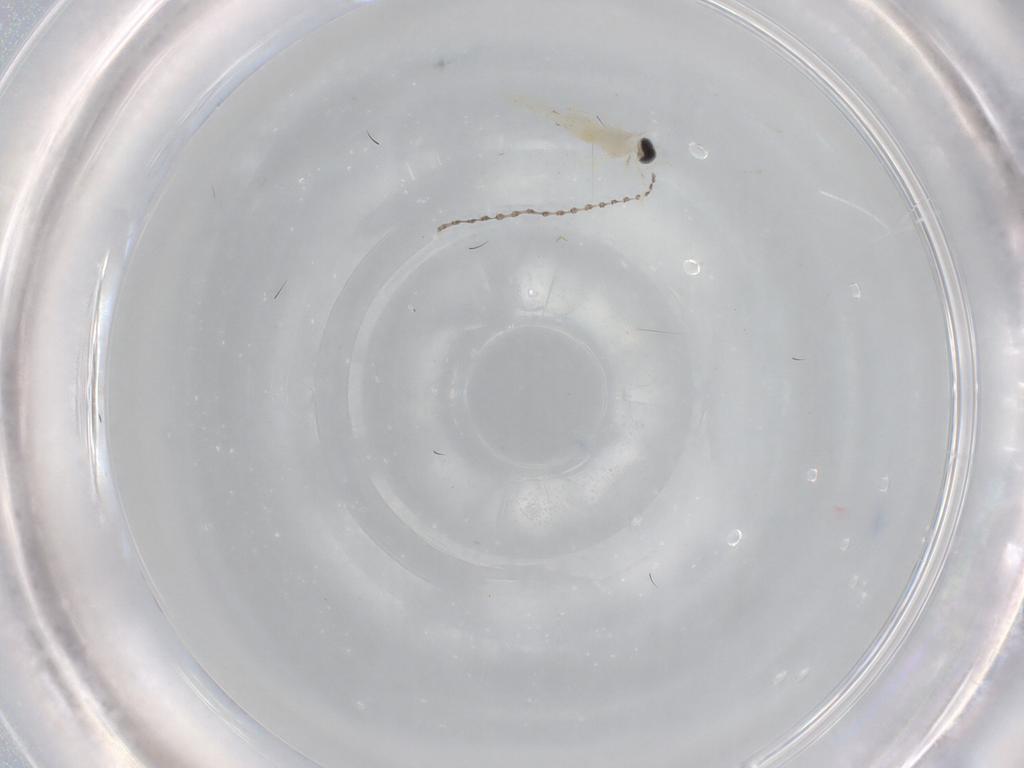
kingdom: Animalia
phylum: Arthropoda
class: Insecta
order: Diptera
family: Cecidomyiidae
